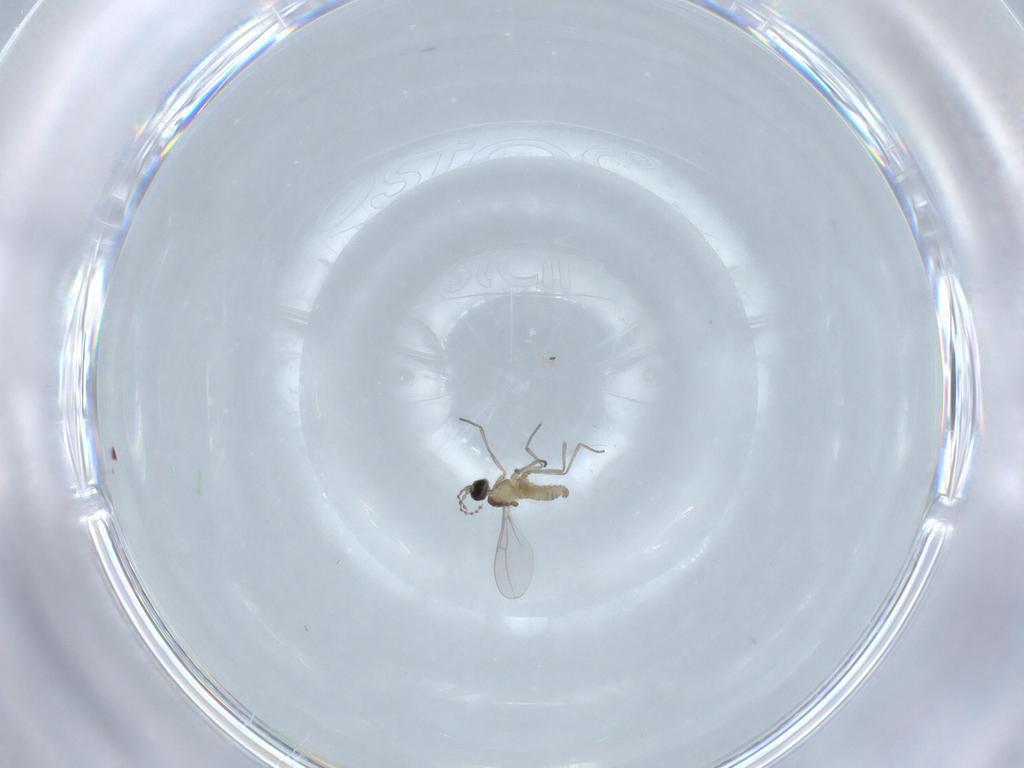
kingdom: Animalia
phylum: Arthropoda
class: Insecta
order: Diptera
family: Cecidomyiidae
